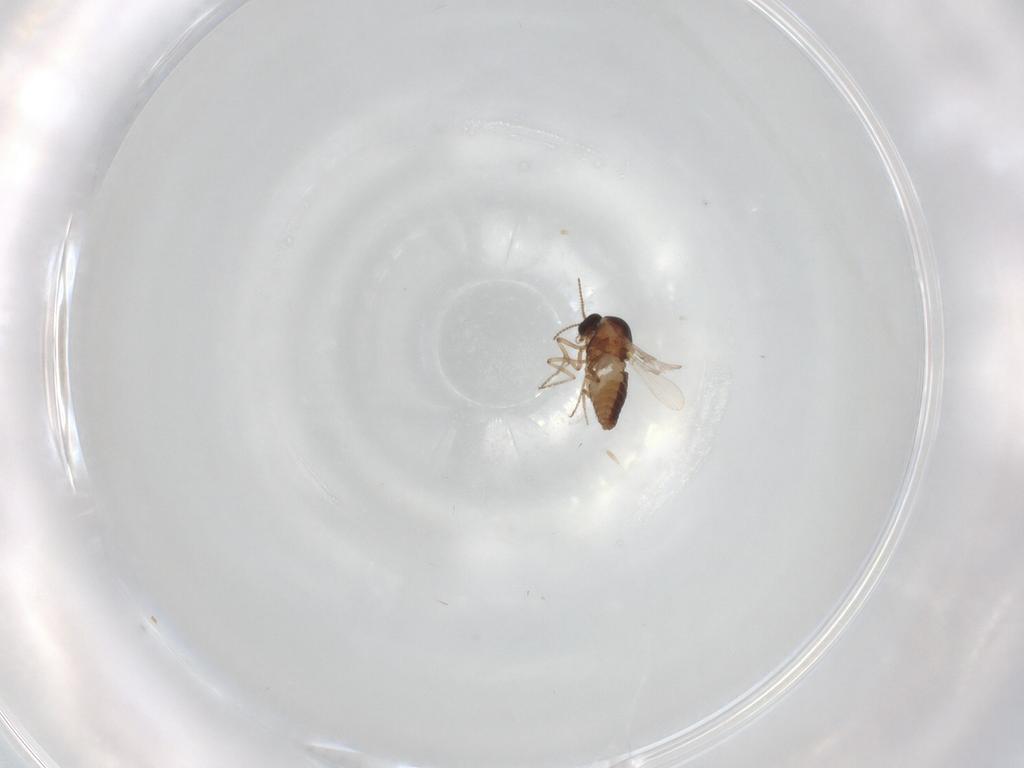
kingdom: Animalia
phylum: Arthropoda
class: Insecta
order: Diptera
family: Ceratopogonidae
